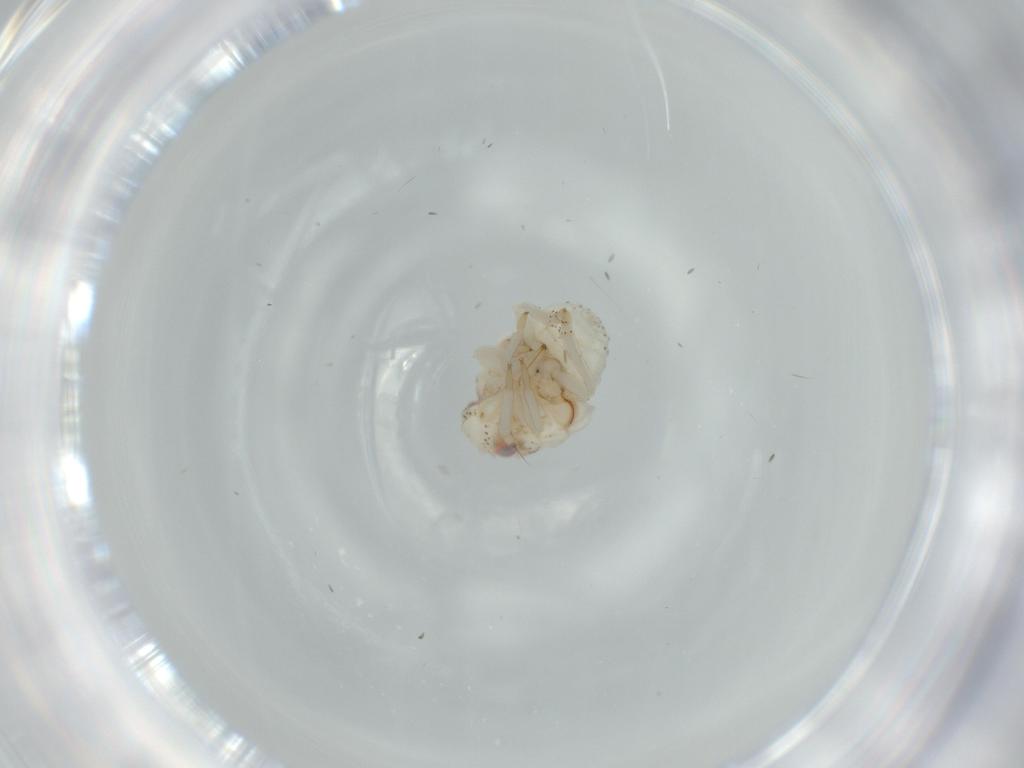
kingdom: Animalia
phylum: Arthropoda
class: Insecta
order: Hemiptera
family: Acanaloniidae
